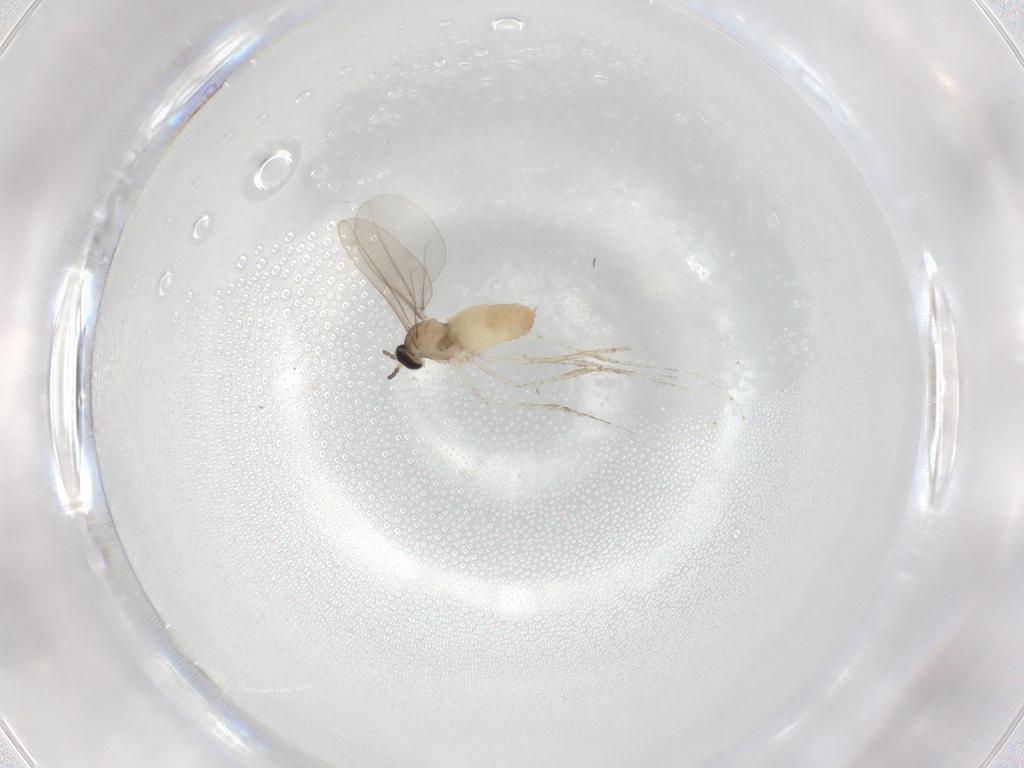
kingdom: Animalia
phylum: Arthropoda
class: Insecta
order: Diptera
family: Cecidomyiidae
